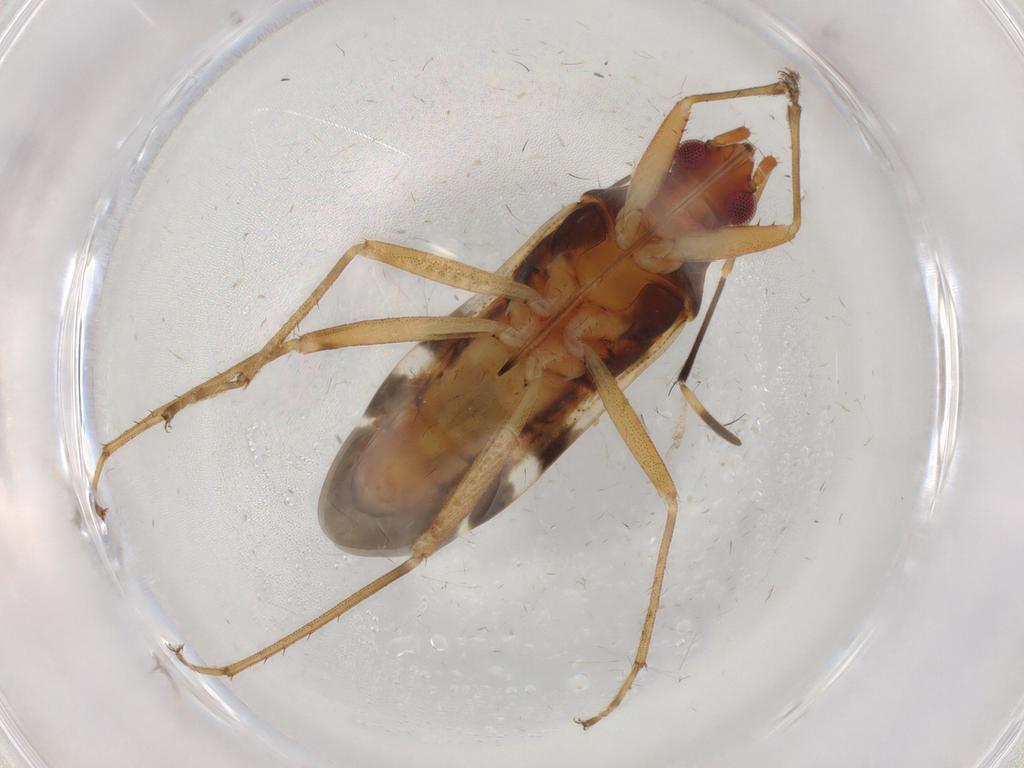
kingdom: Animalia
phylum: Arthropoda
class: Insecta
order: Hemiptera
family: Rhyparochromidae
